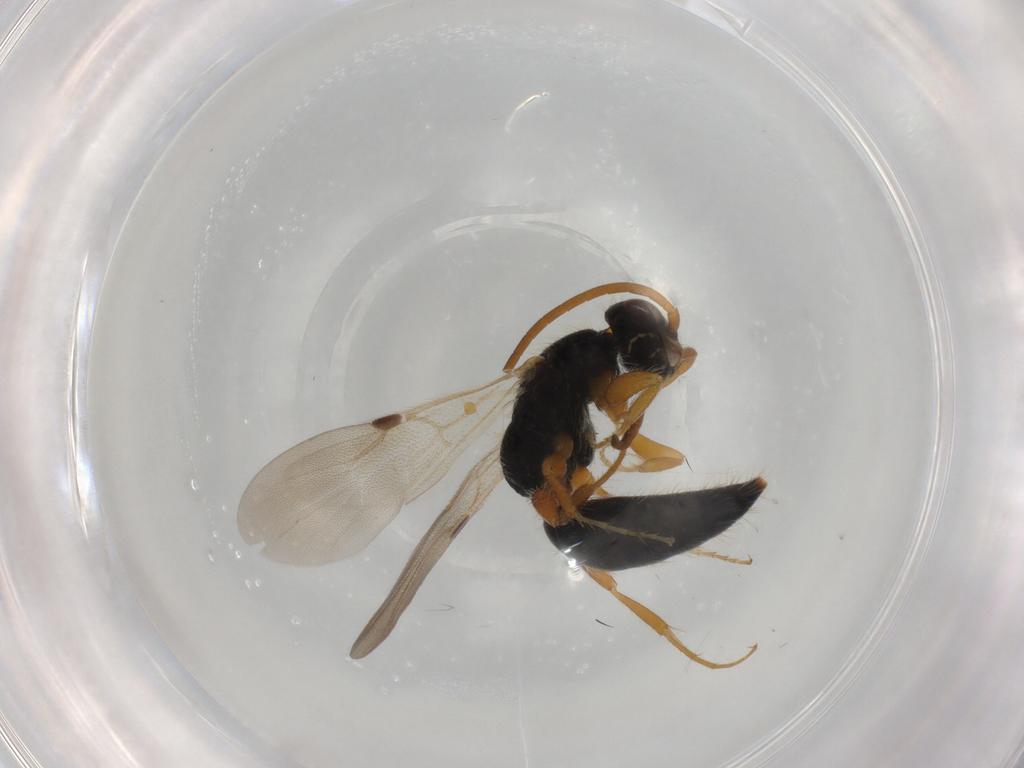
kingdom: Animalia
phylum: Arthropoda
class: Insecta
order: Hymenoptera
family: Bethylidae
